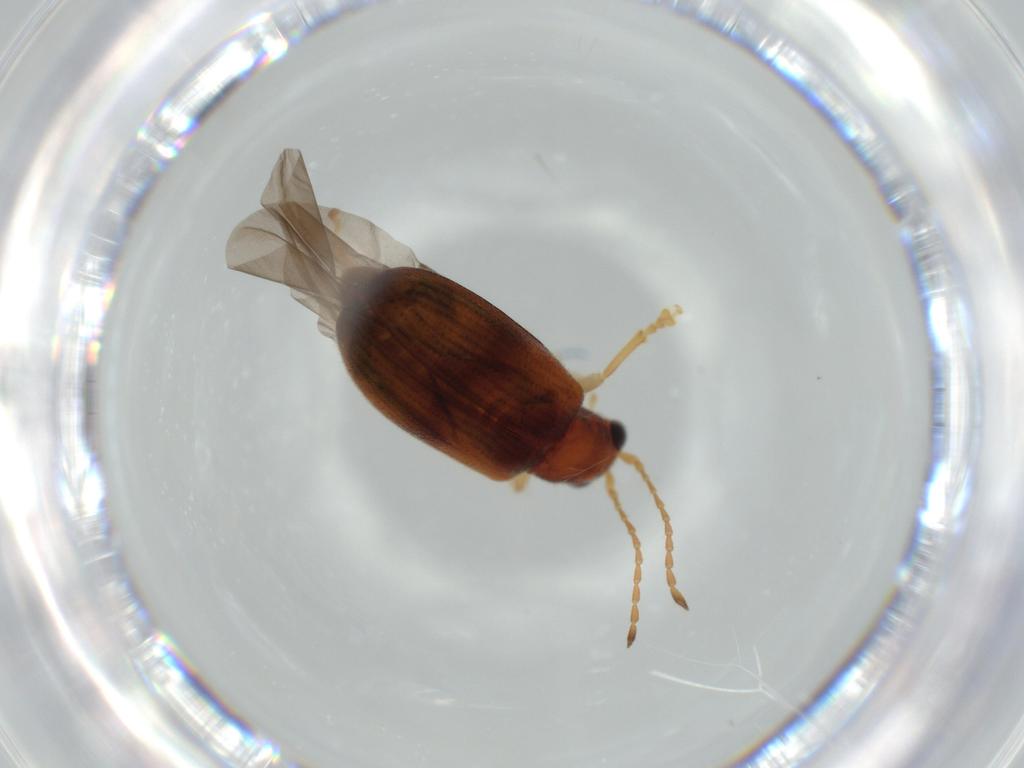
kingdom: Animalia
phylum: Arthropoda
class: Insecta
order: Coleoptera
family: Chrysomelidae
